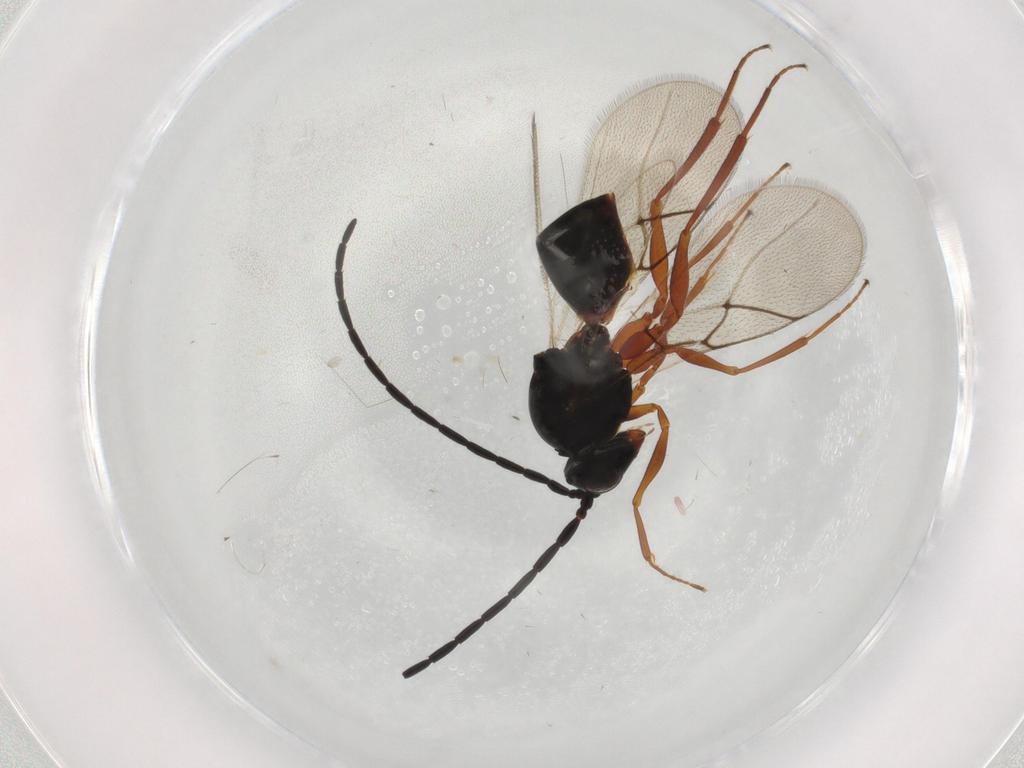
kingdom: Animalia
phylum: Arthropoda
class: Insecta
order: Hymenoptera
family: Figitidae
